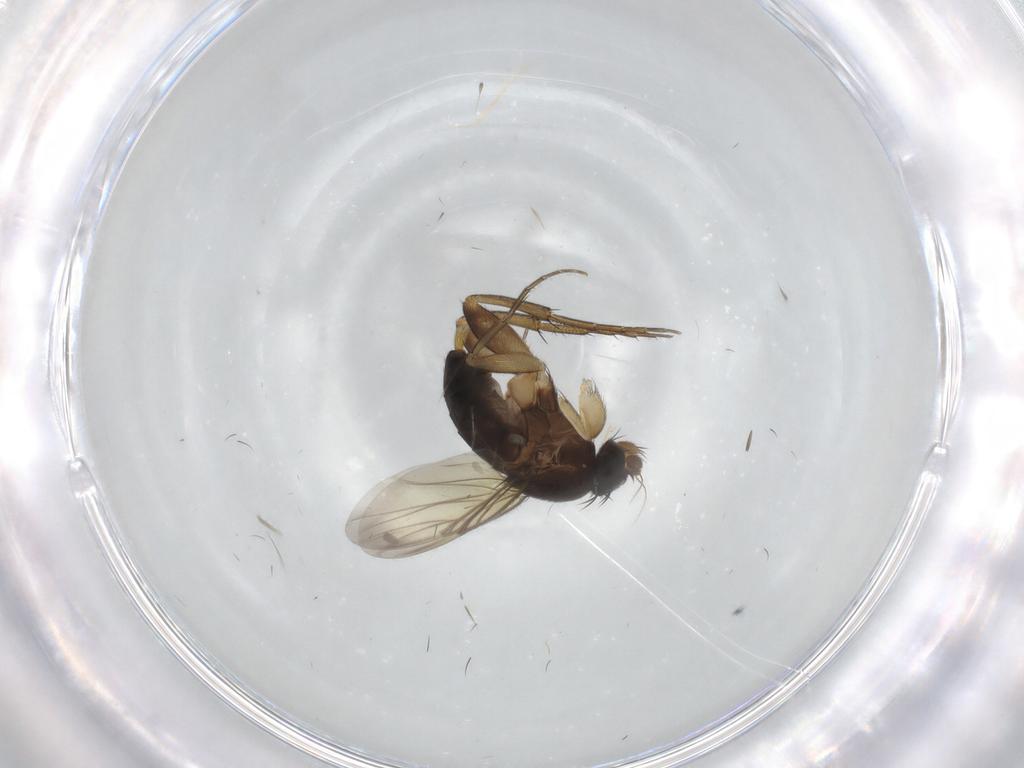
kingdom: Animalia
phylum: Arthropoda
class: Insecta
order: Diptera
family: Phoridae
